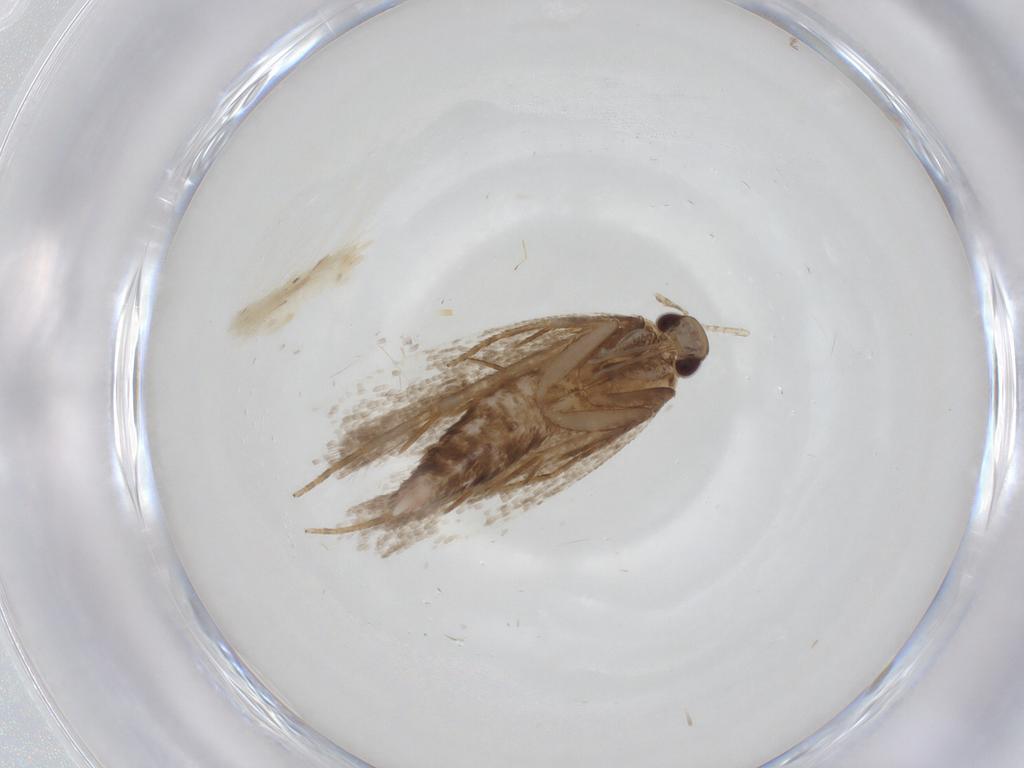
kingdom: Animalia
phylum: Arthropoda
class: Insecta
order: Lepidoptera
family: Gelechiidae
